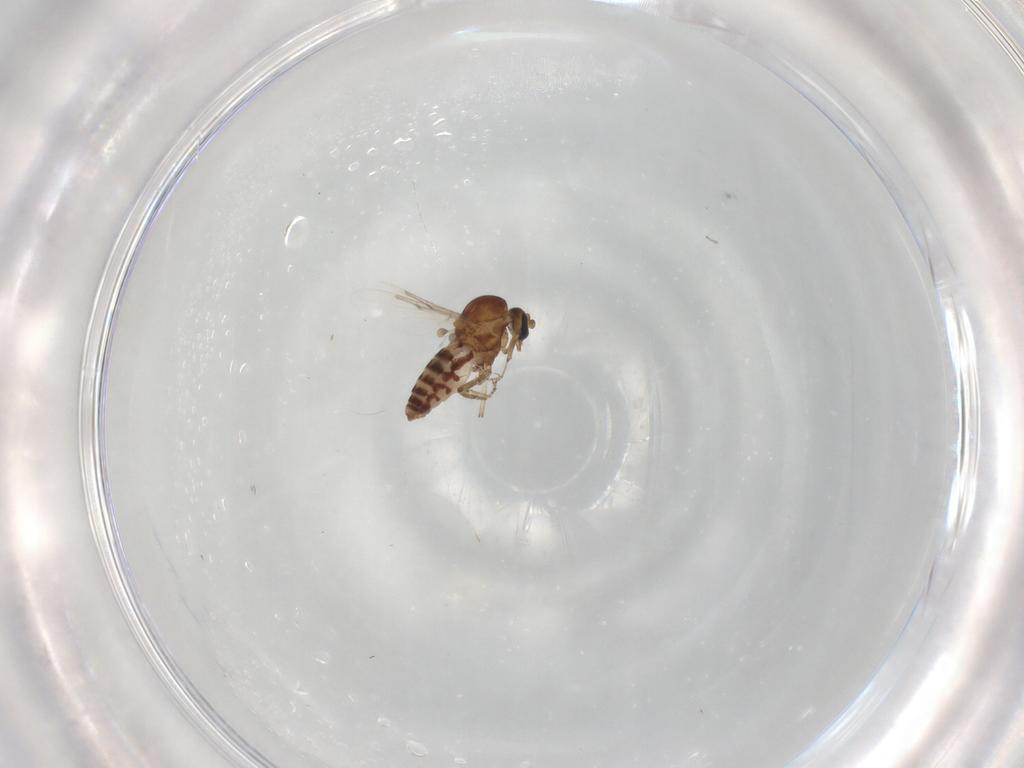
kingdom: Animalia
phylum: Arthropoda
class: Insecta
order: Diptera
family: Ceratopogonidae
